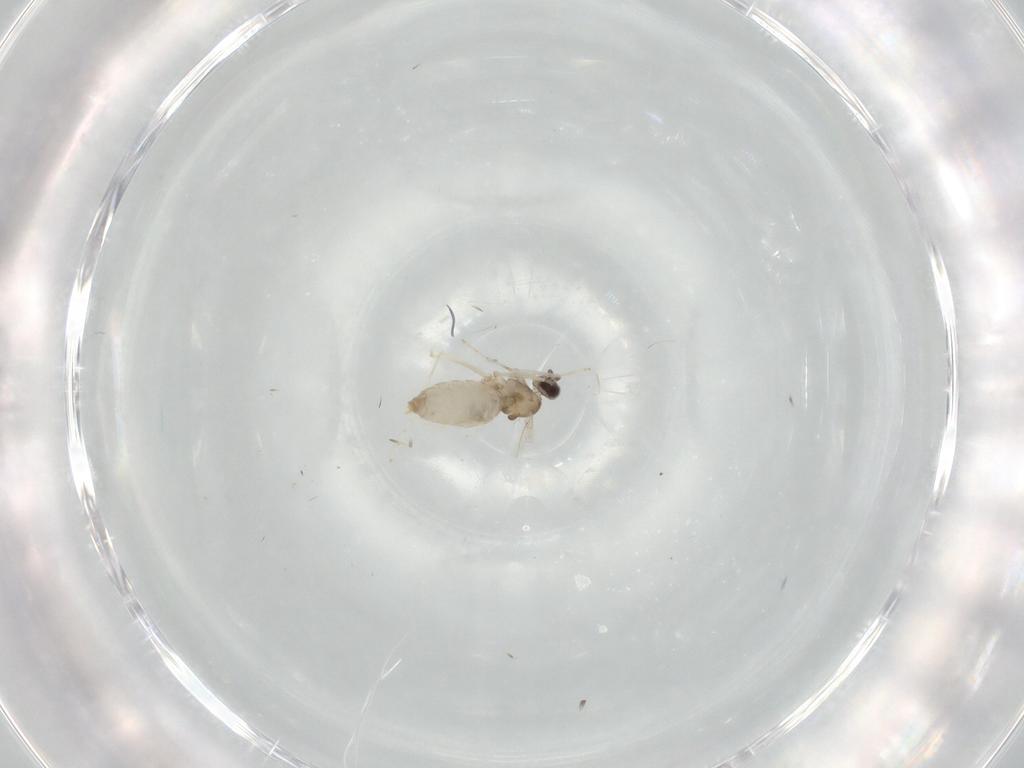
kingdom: Animalia
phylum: Arthropoda
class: Insecta
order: Diptera
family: Cecidomyiidae
